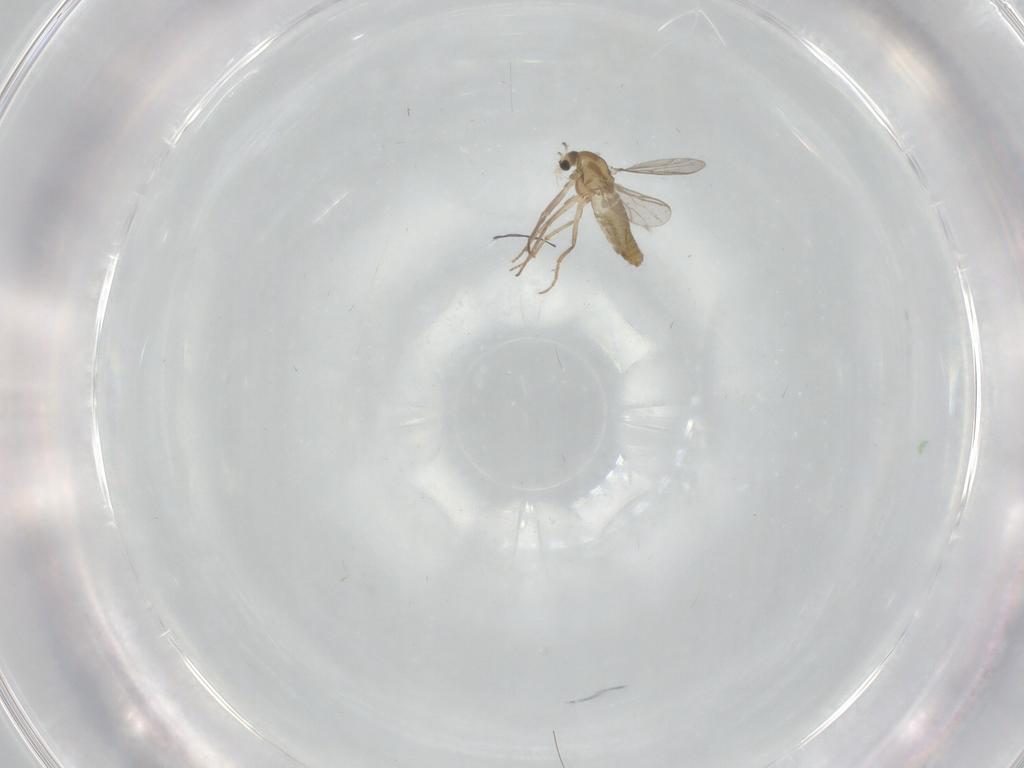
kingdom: Animalia
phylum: Arthropoda
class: Insecta
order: Diptera
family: Chironomidae
